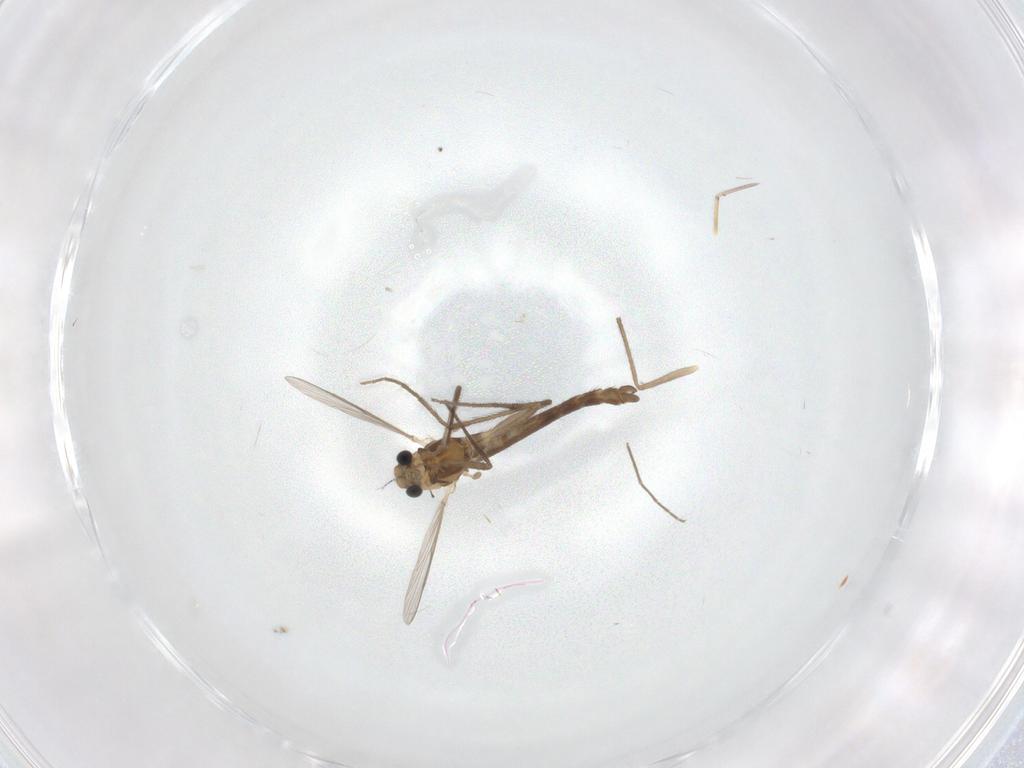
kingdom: Animalia
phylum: Arthropoda
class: Insecta
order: Diptera
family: Chironomidae
